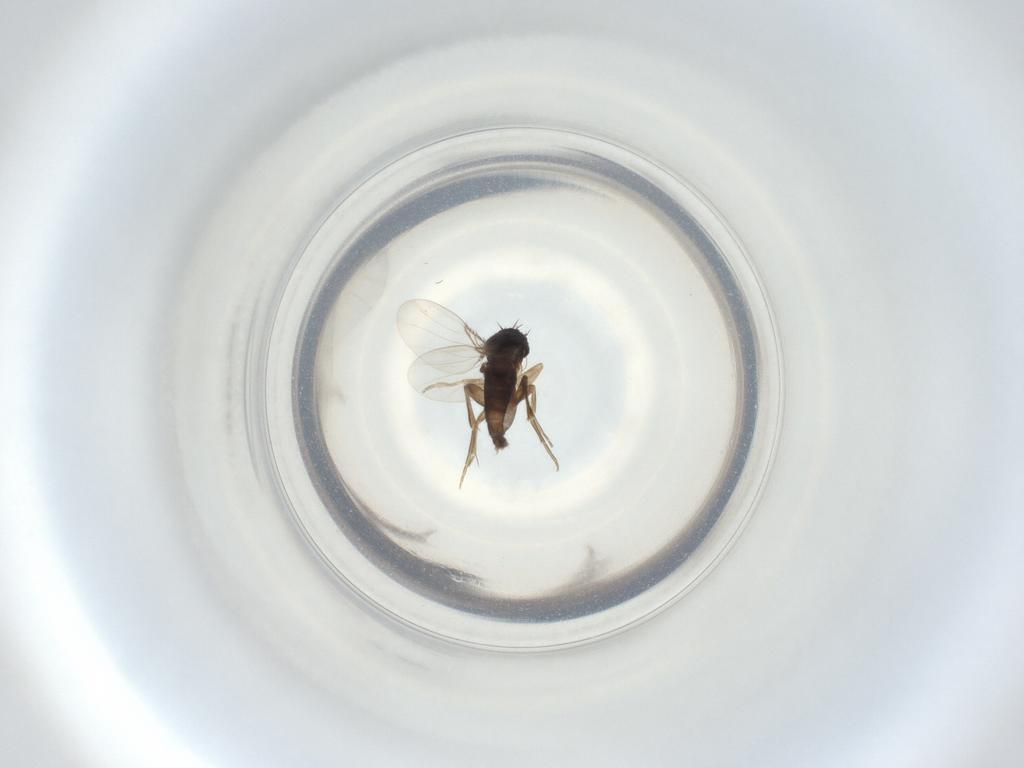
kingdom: Animalia
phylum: Arthropoda
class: Insecta
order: Diptera
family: Phoridae
